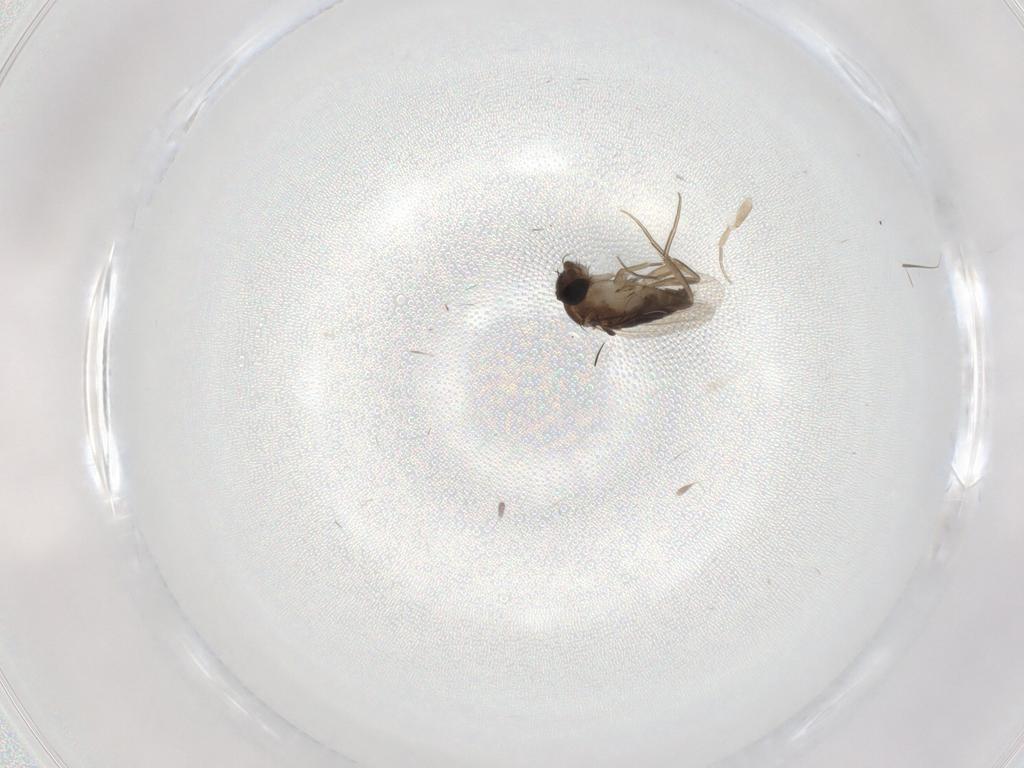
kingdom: Animalia
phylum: Arthropoda
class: Insecta
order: Diptera
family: Phoridae
